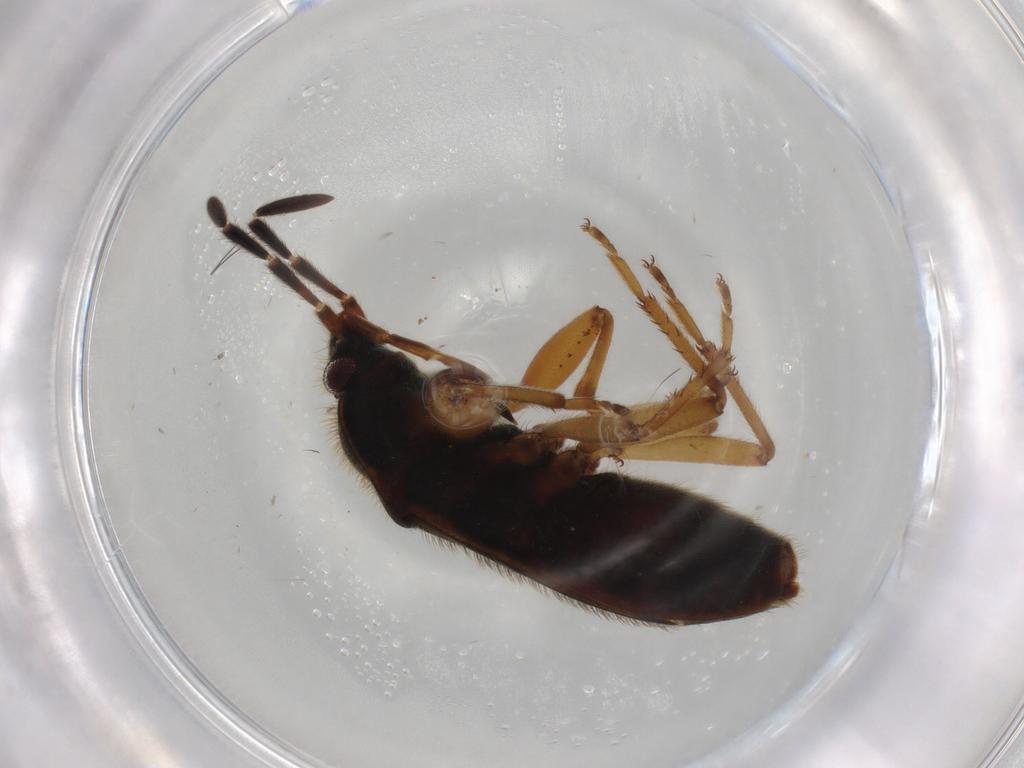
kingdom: Animalia
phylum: Arthropoda
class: Insecta
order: Hemiptera
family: Rhyparochromidae
